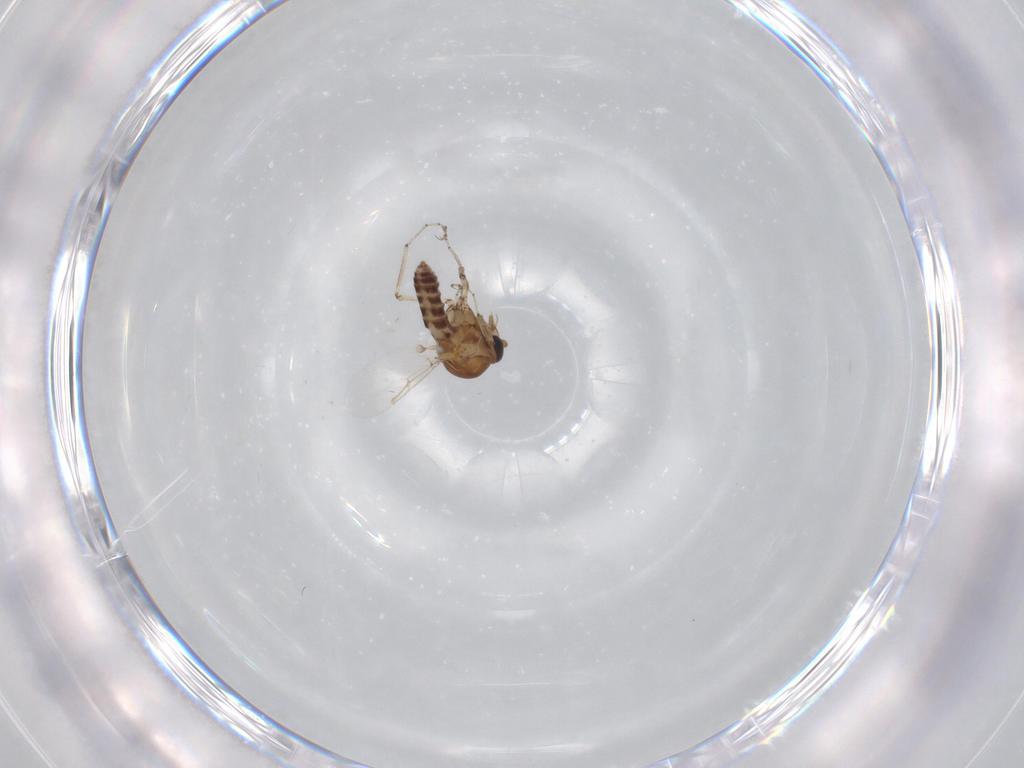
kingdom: Animalia
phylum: Arthropoda
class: Insecta
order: Diptera
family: Ceratopogonidae
